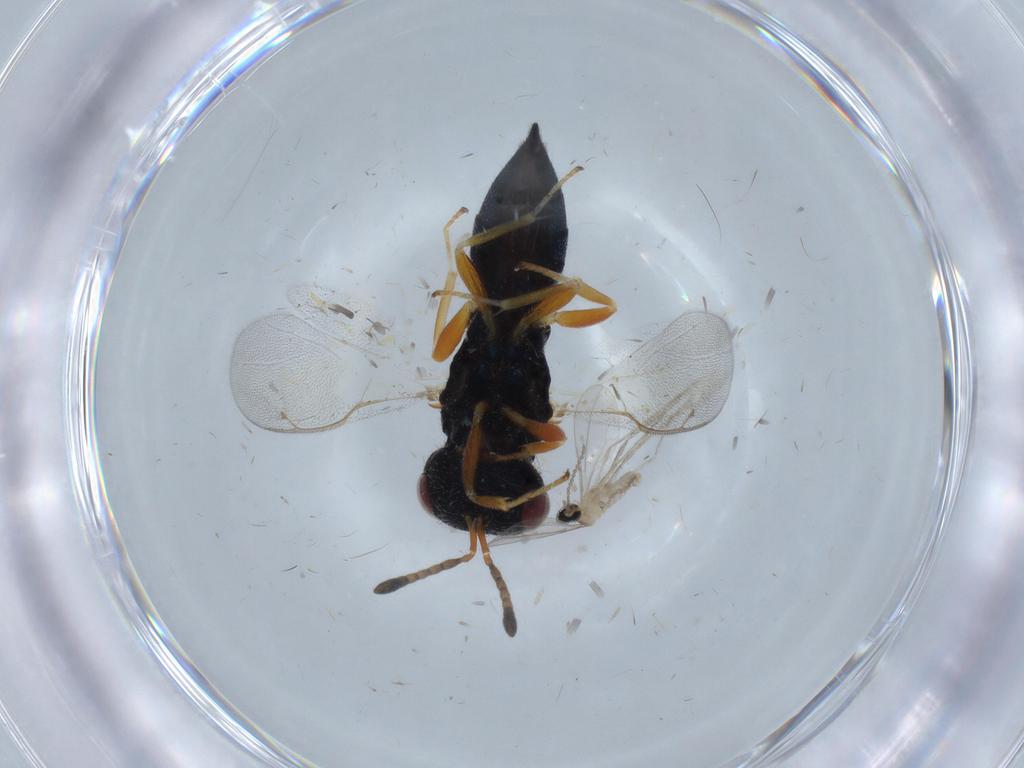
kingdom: Animalia
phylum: Arthropoda
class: Insecta
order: Hymenoptera
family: Pteromalidae
